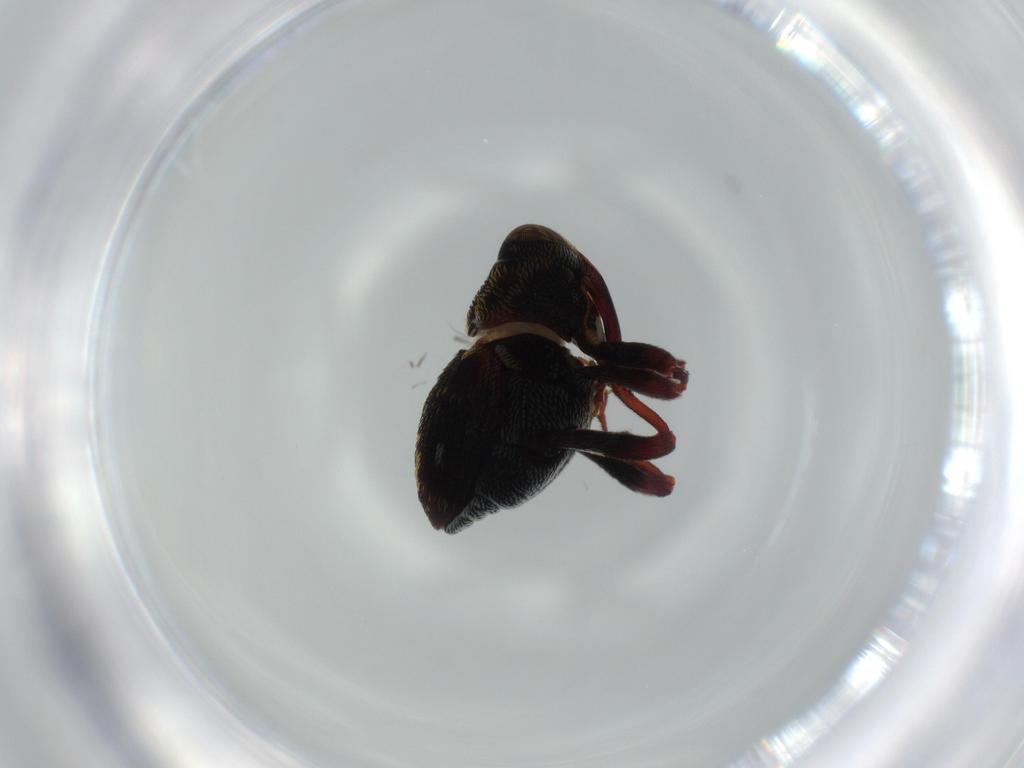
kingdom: Animalia
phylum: Arthropoda
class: Insecta
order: Coleoptera
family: Curculionidae
